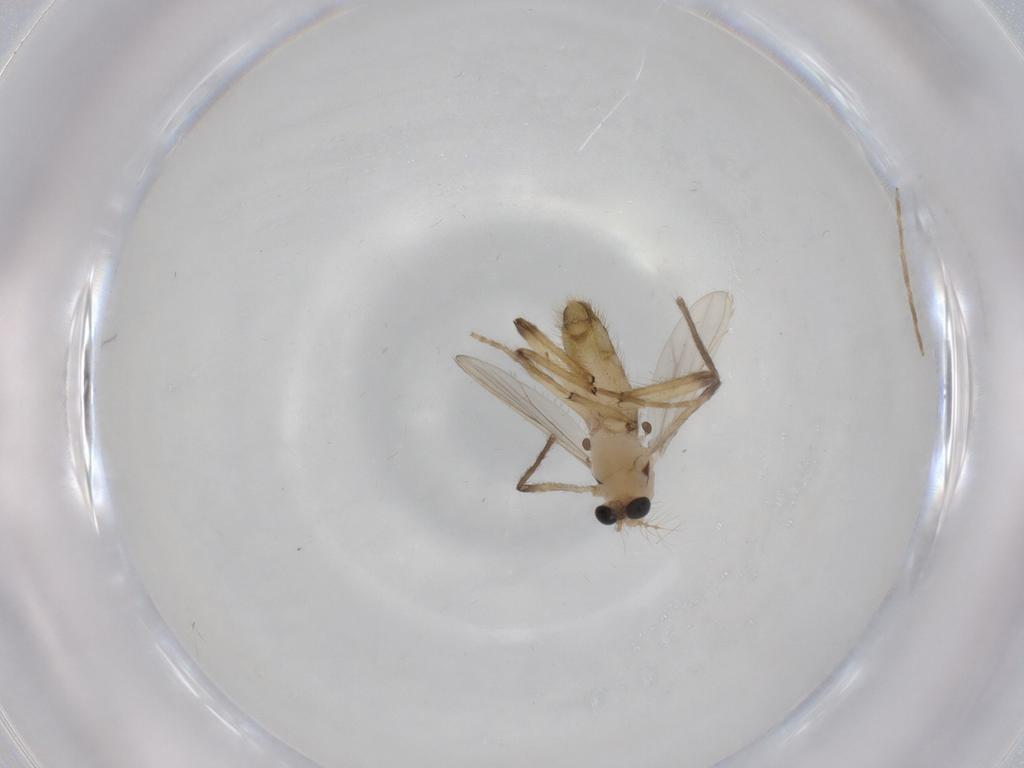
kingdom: Animalia
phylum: Arthropoda
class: Insecta
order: Diptera
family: Chironomidae
